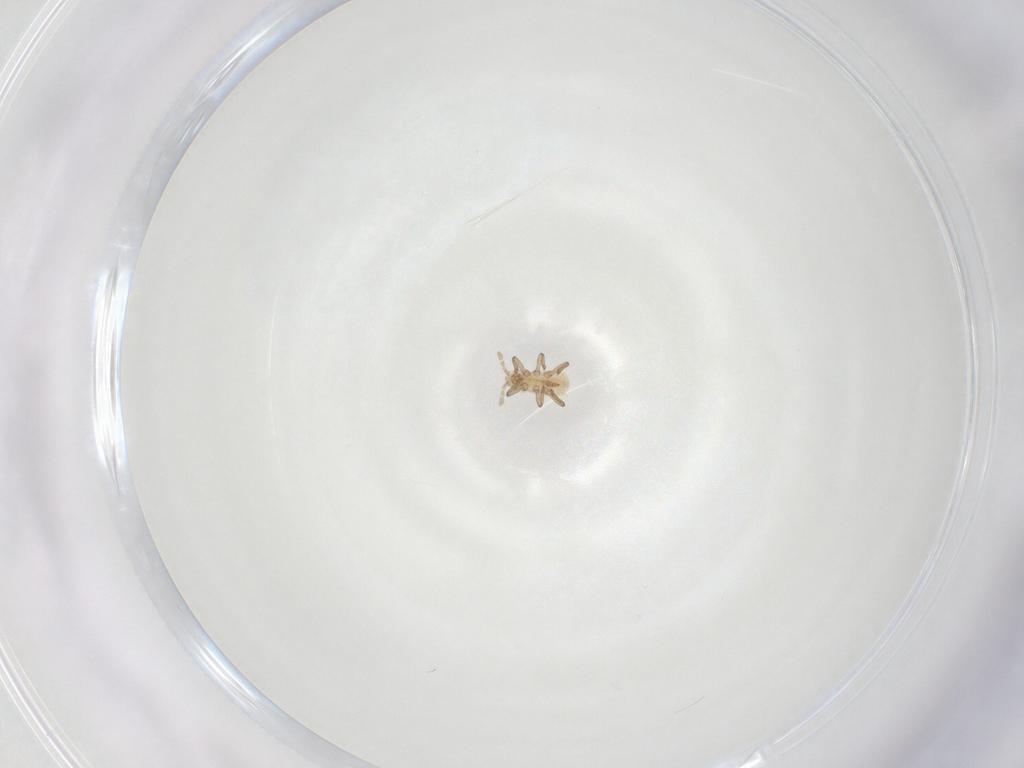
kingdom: Animalia
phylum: Arthropoda
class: Insecta
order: Hemiptera
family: Aphididae
